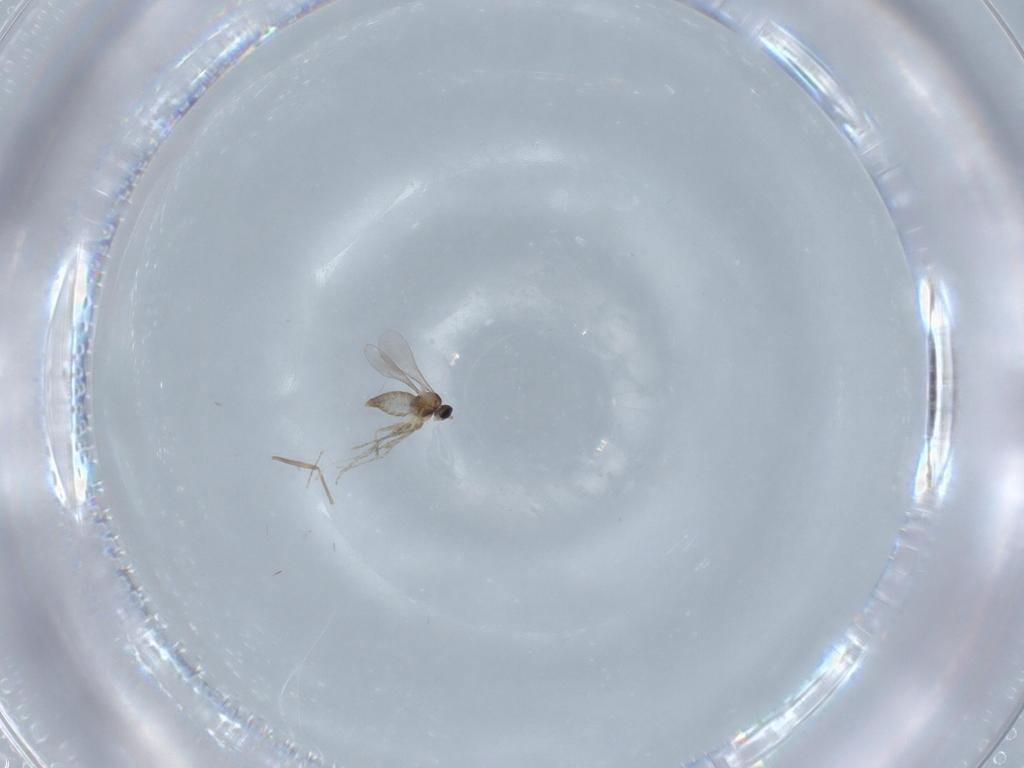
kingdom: Animalia
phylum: Arthropoda
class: Insecta
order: Diptera
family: Chironomidae
